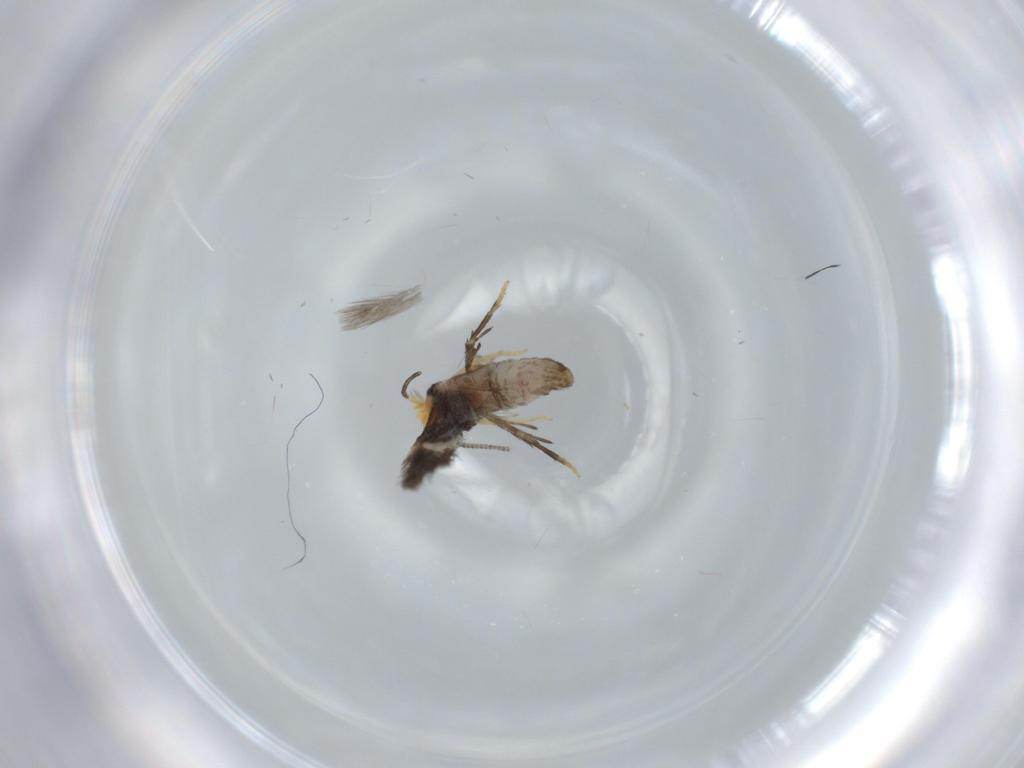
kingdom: Animalia
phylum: Arthropoda
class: Insecta
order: Lepidoptera
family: Nepticulidae
